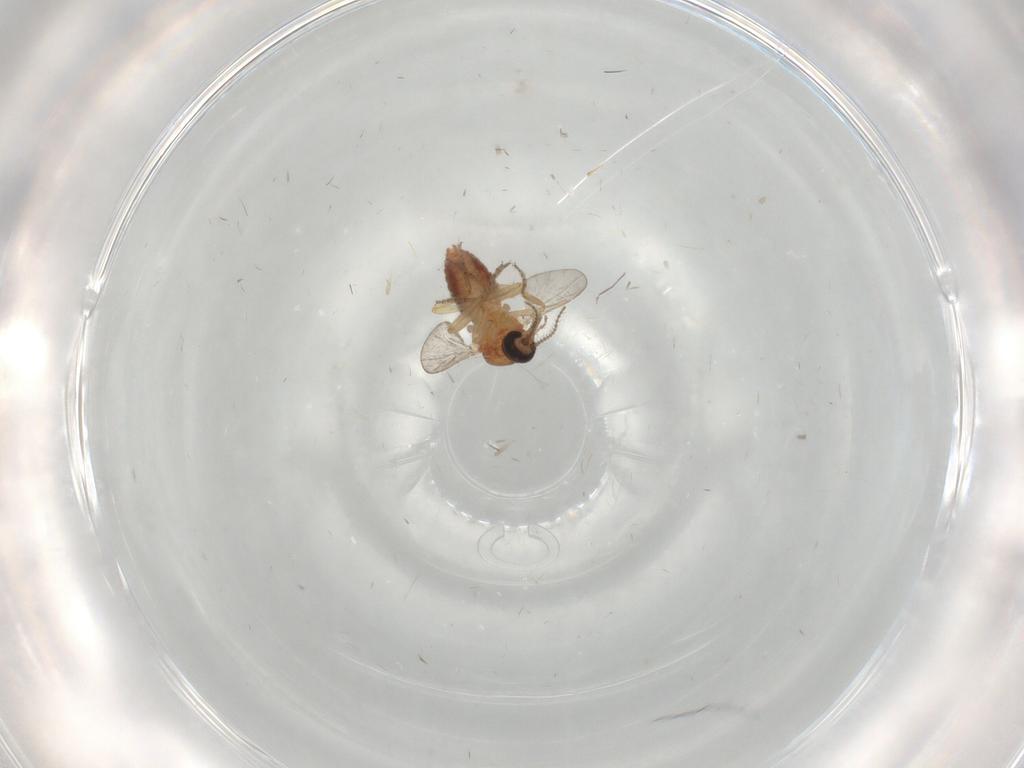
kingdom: Animalia
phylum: Arthropoda
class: Insecta
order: Diptera
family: Ceratopogonidae
